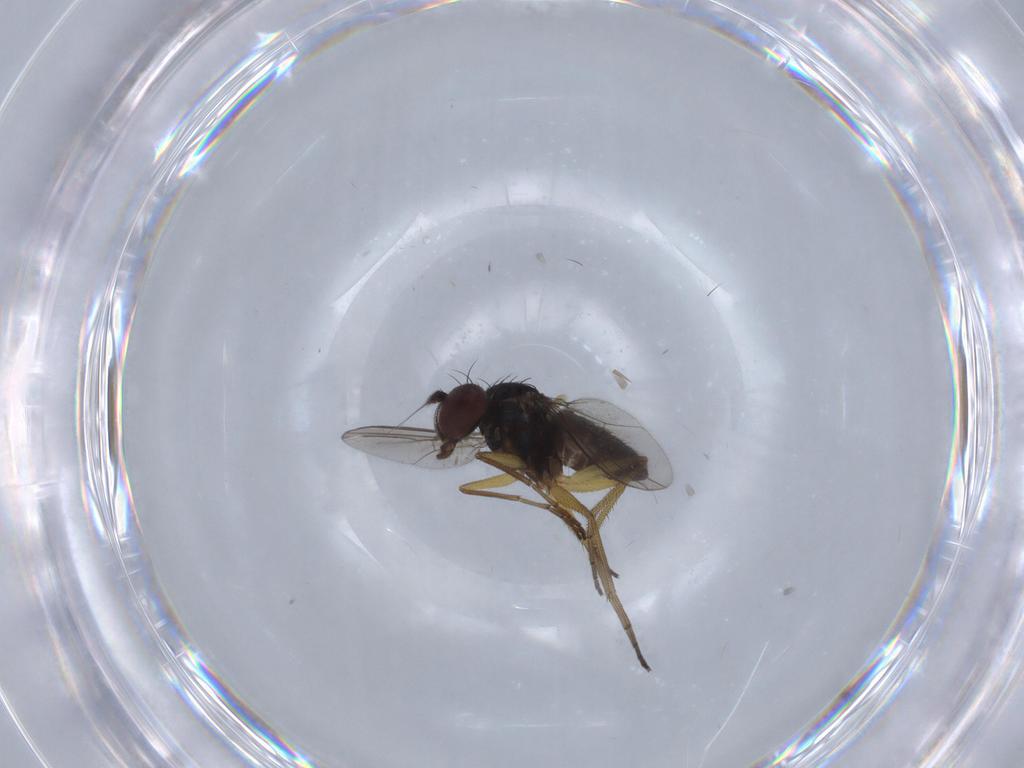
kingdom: Animalia
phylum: Arthropoda
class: Insecta
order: Diptera
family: Dolichopodidae
